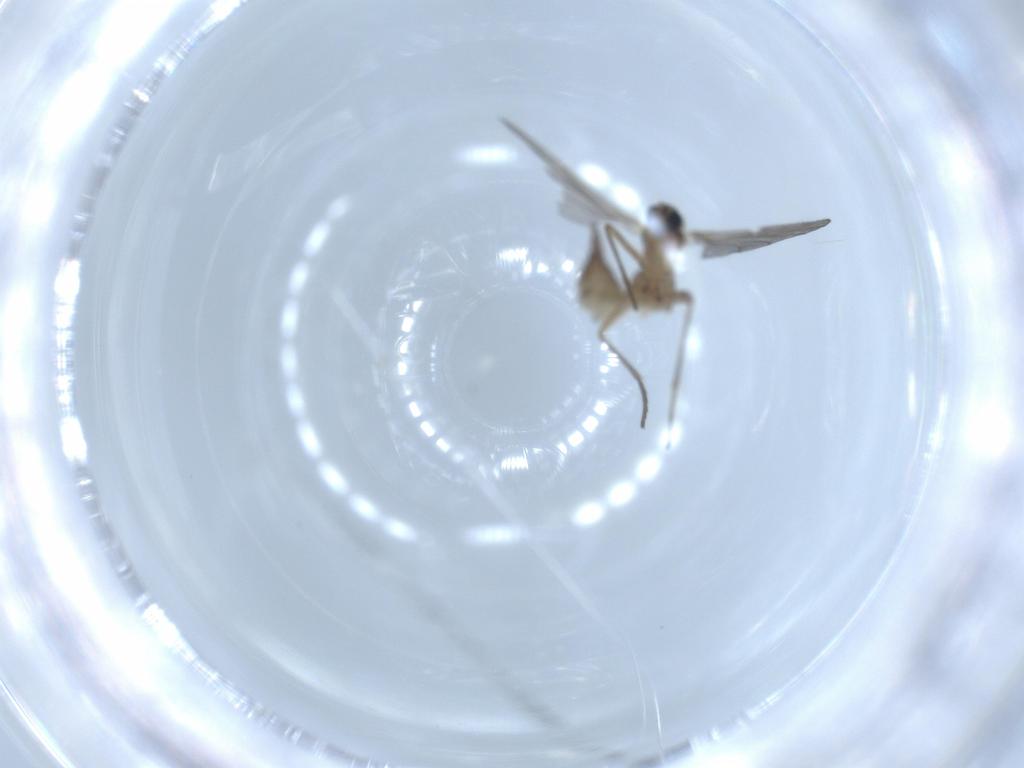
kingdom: Animalia
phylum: Arthropoda
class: Insecta
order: Diptera
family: Sciaridae
